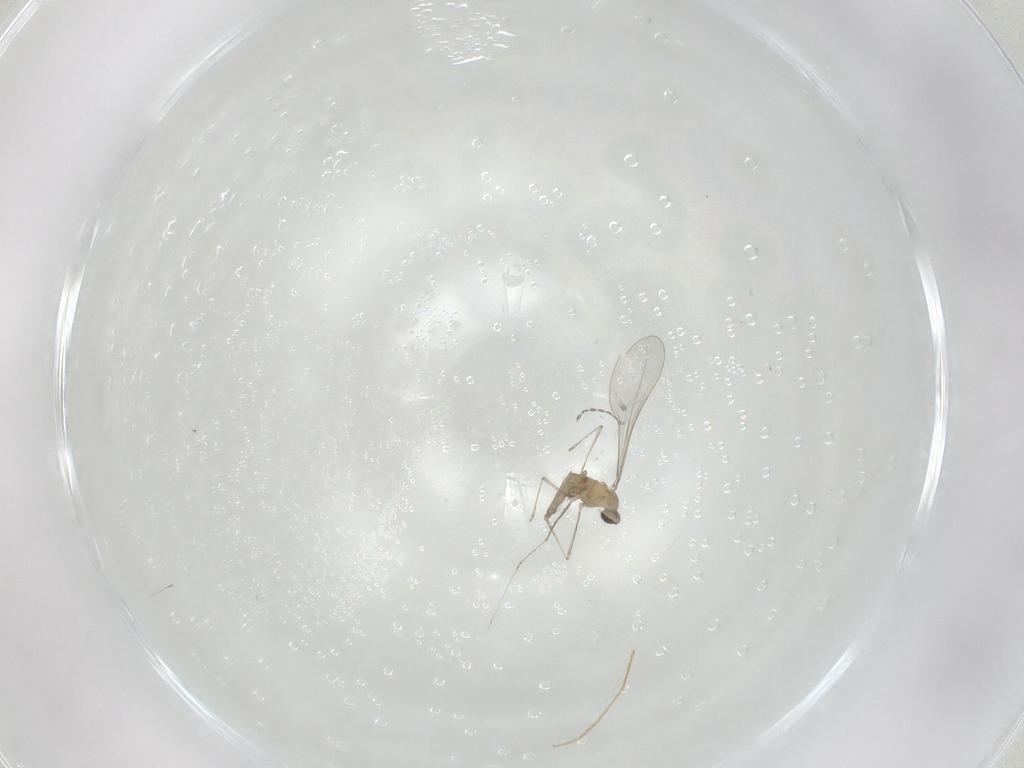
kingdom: Animalia
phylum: Arthropoda
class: Insecta
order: Diptera
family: Cecidomyiidae
